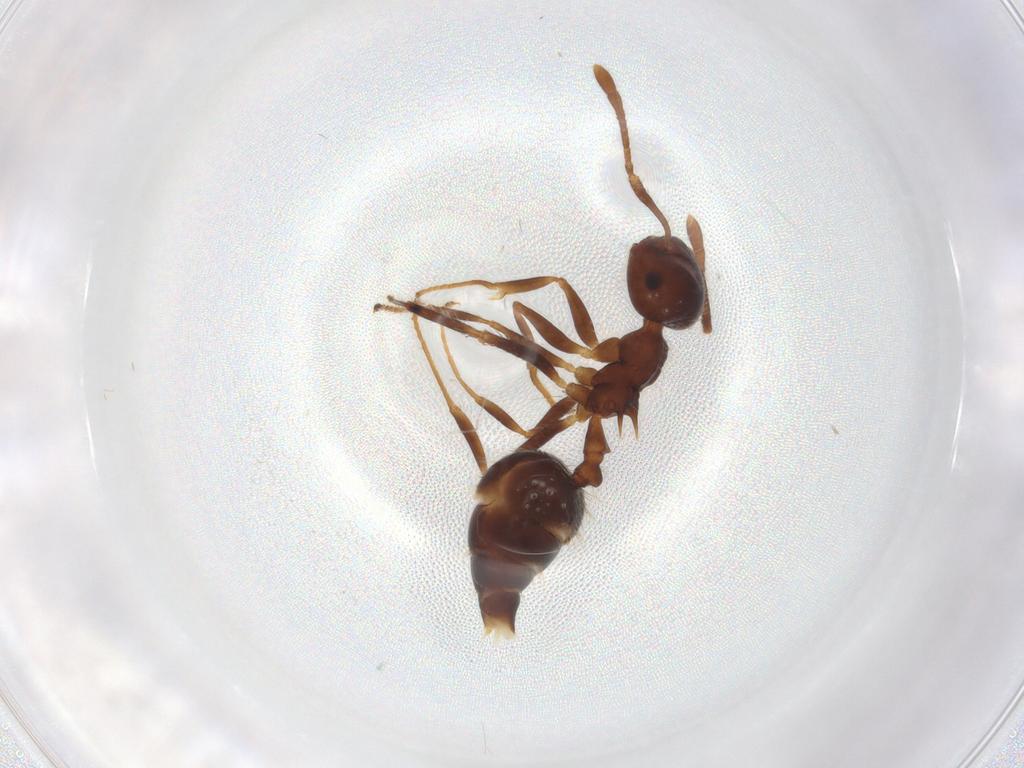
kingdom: Animalia
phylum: Arthropoda
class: Insecta
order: Hymenoptera
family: Formicidae
